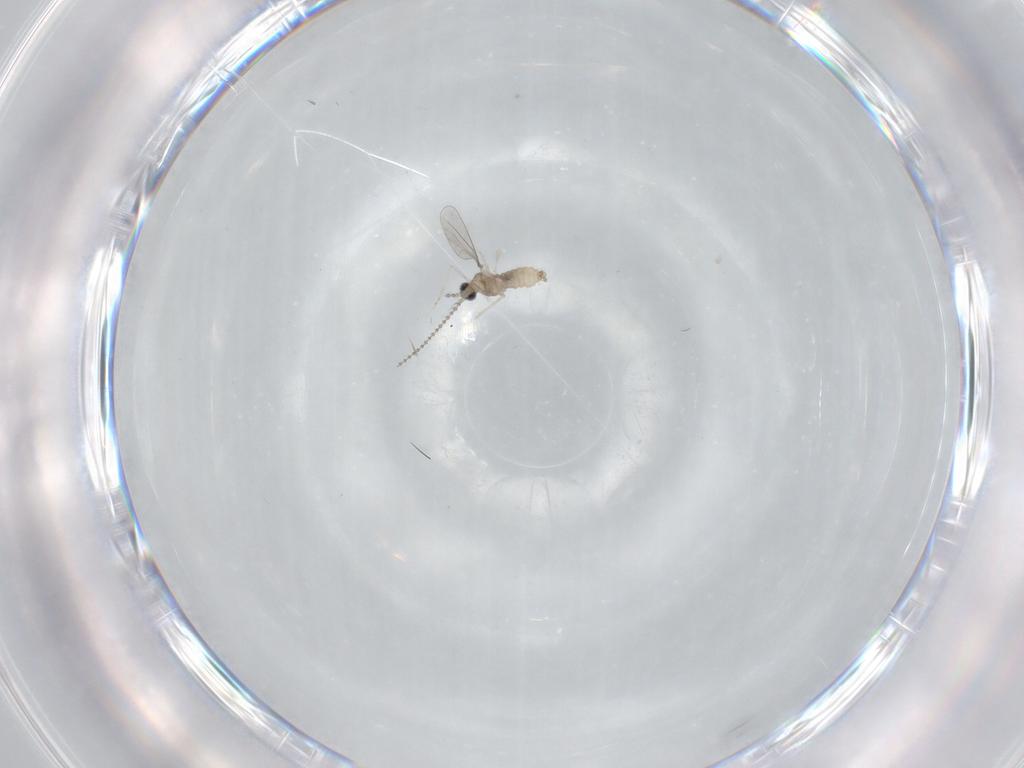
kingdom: Animalia
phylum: Arthropoda
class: Insecta
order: Diptera
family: Cecidomyiidae
